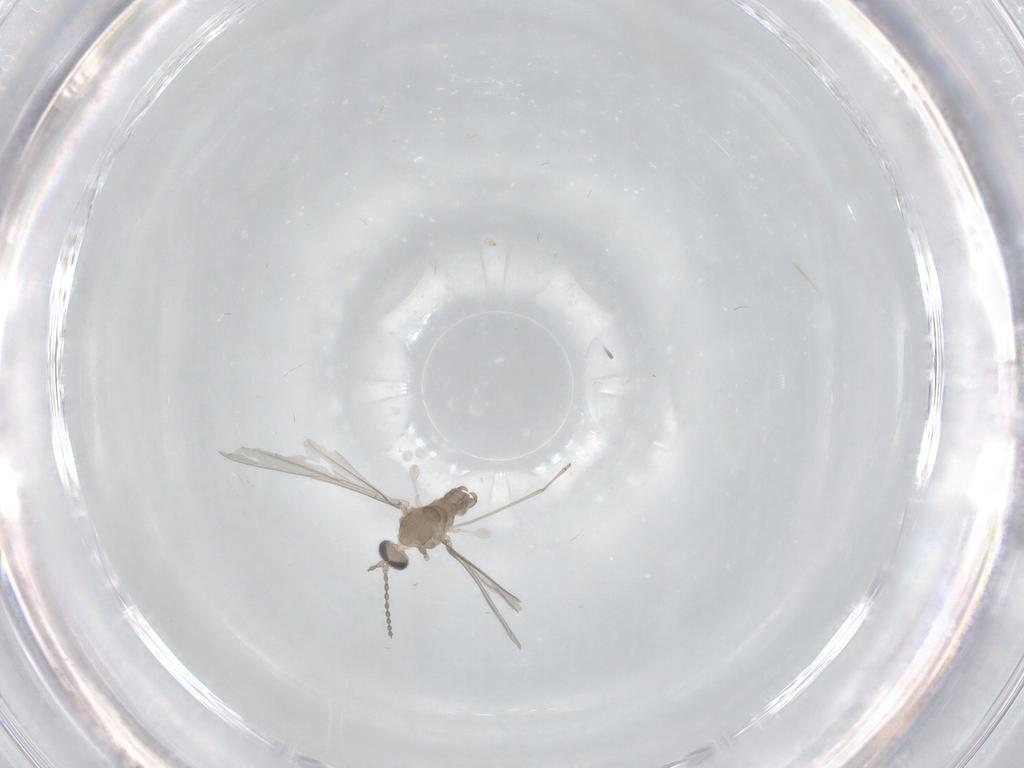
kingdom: Animalia
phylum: Arthropoda
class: Insecta
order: Diptera
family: Cecidomyiidae
